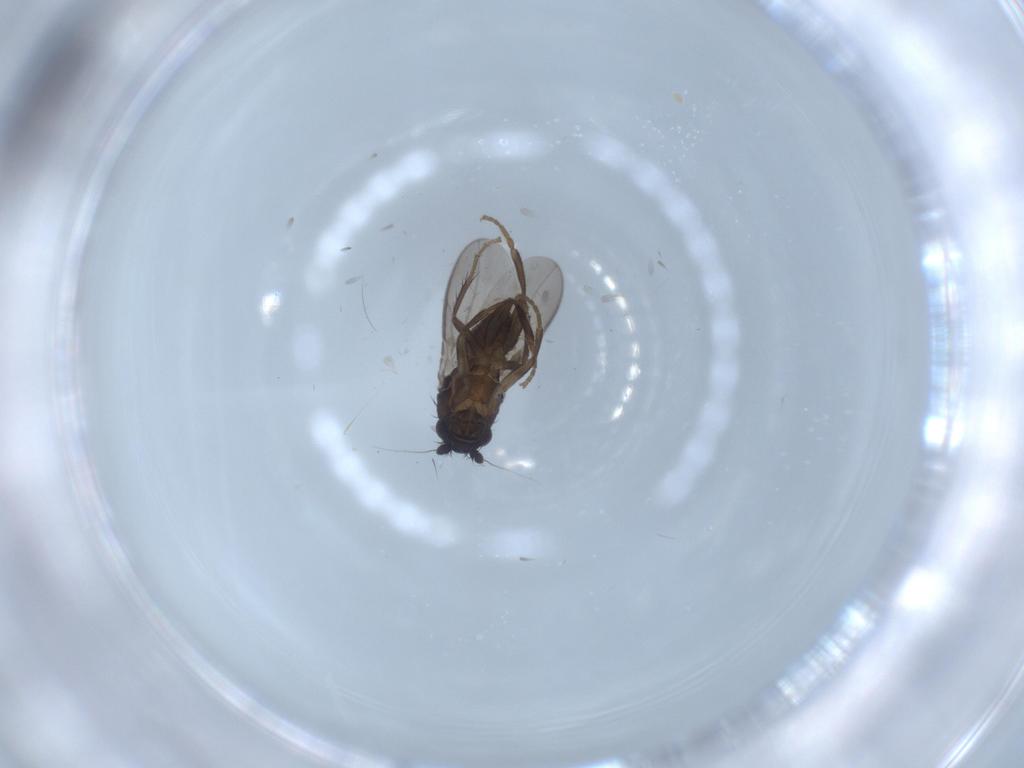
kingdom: Animalia
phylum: Arthropoda
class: Insecta
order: Diptera
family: Sphaeroceridae
